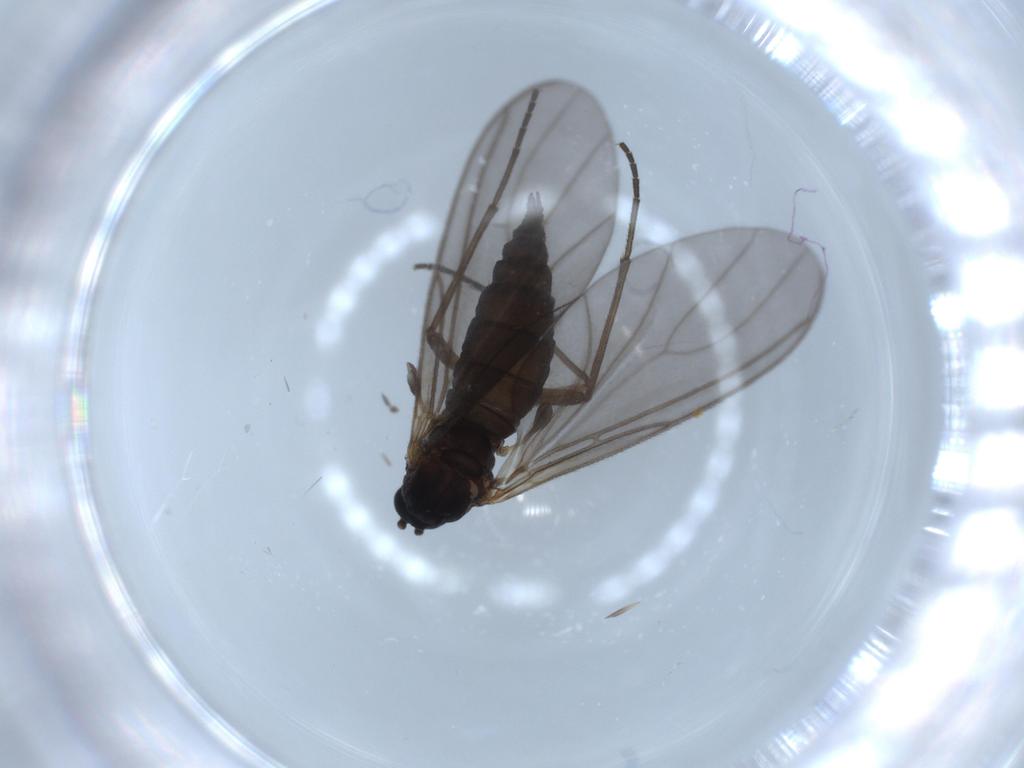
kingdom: Animalia
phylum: Arthropoda
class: Insecta
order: Diptera
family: Sciaridae
